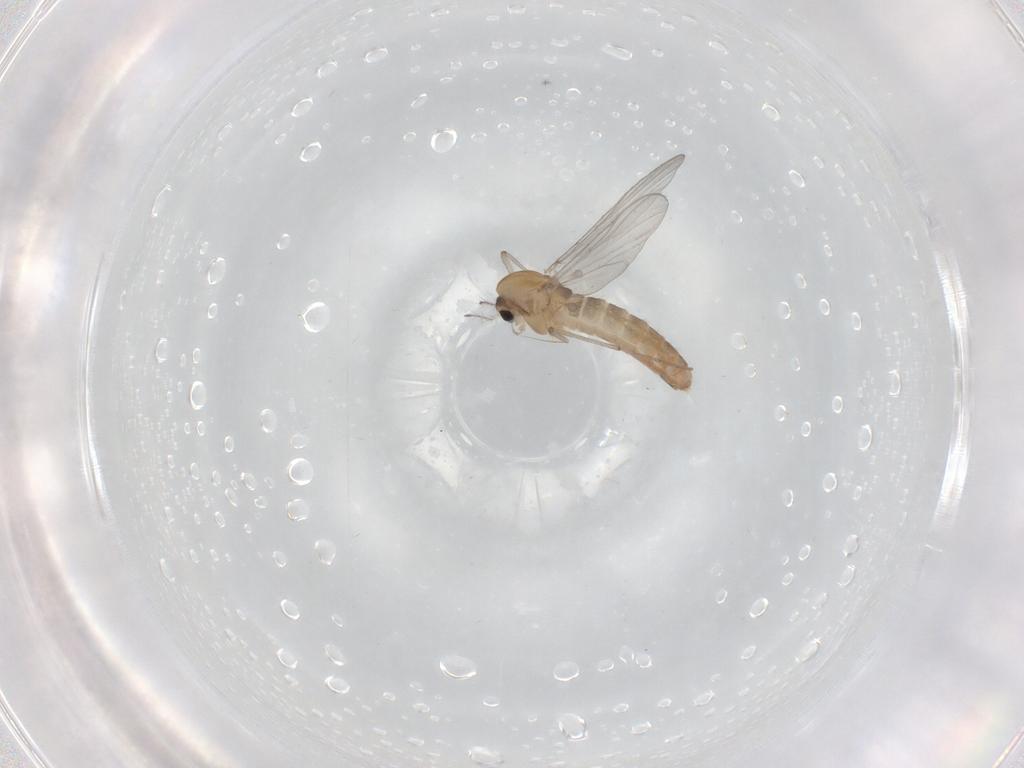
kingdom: Animalia
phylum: Arthropoda
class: Insecta
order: Diptera
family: Chironomidae
